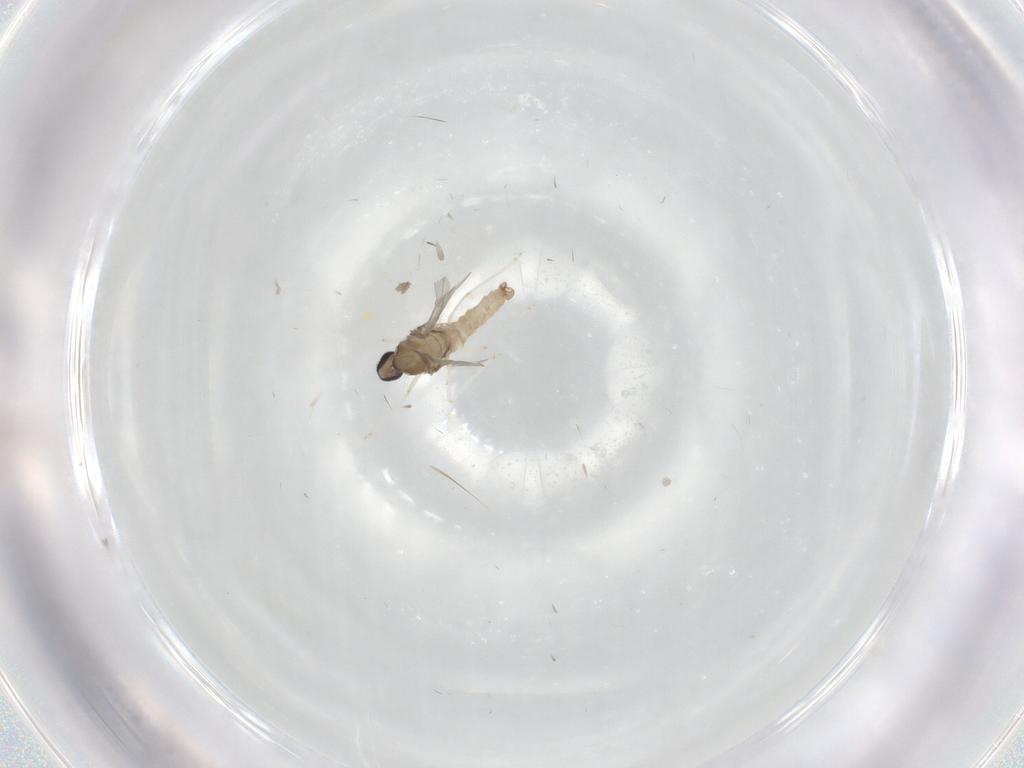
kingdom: Animalia
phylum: Arthropoda
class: Insecta
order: Diptera
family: Cecidomyiidae
